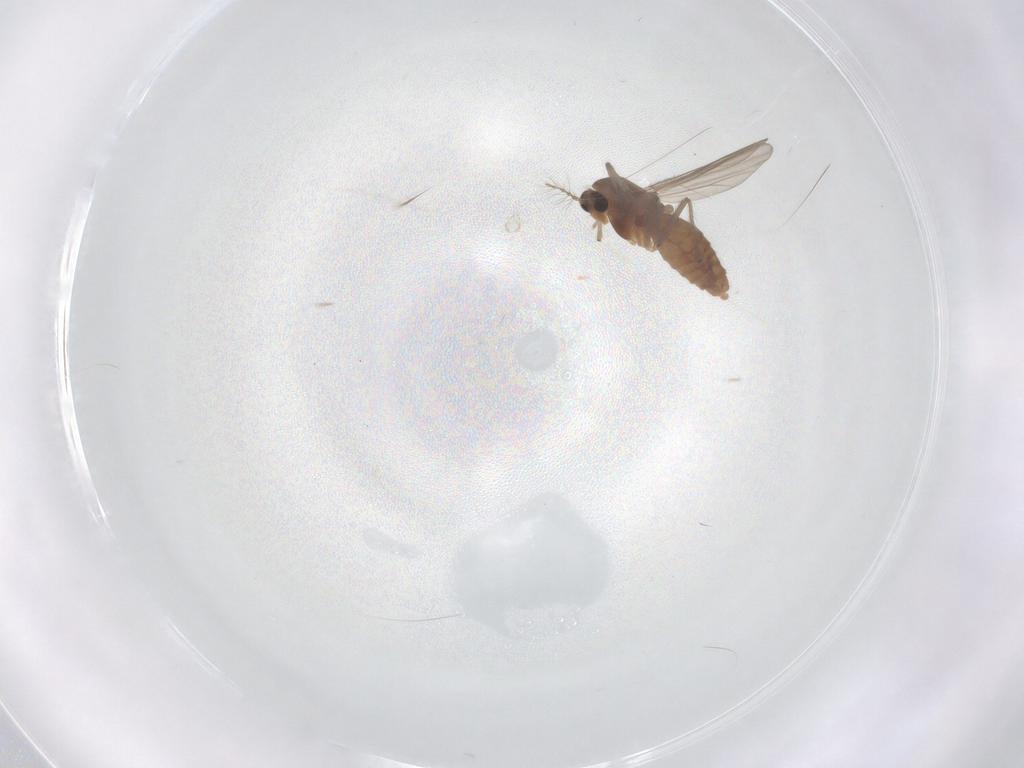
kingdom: Animalia
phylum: Arthropoda
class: Insecta
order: Diptera
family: Chironomidae
